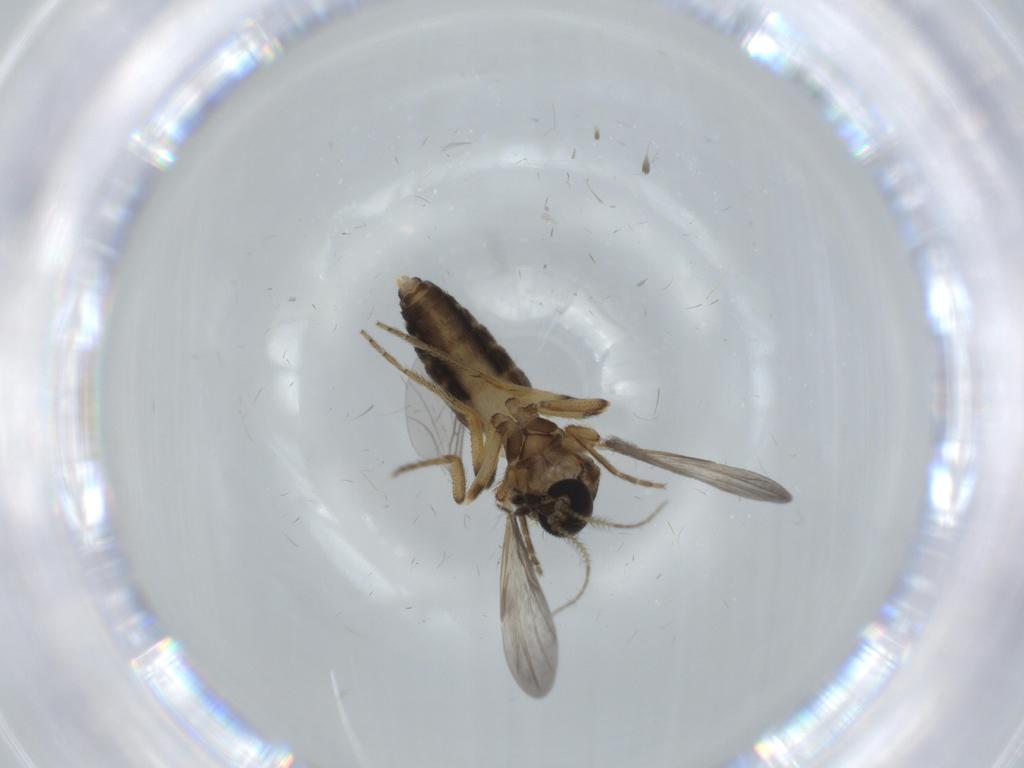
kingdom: Animalia
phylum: Arthropoda
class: Insecta
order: Diptera
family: Ceratopogonidae
